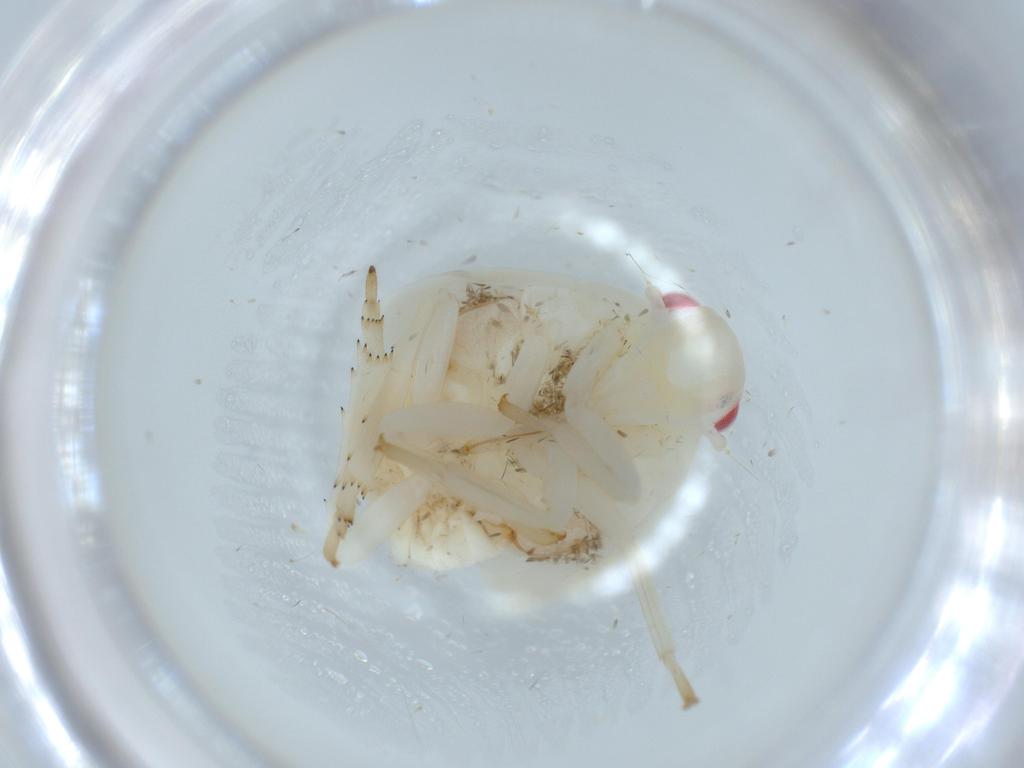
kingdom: Animalia
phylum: Arthropoda
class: Insecta
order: Hemiptera
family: Flatidae
